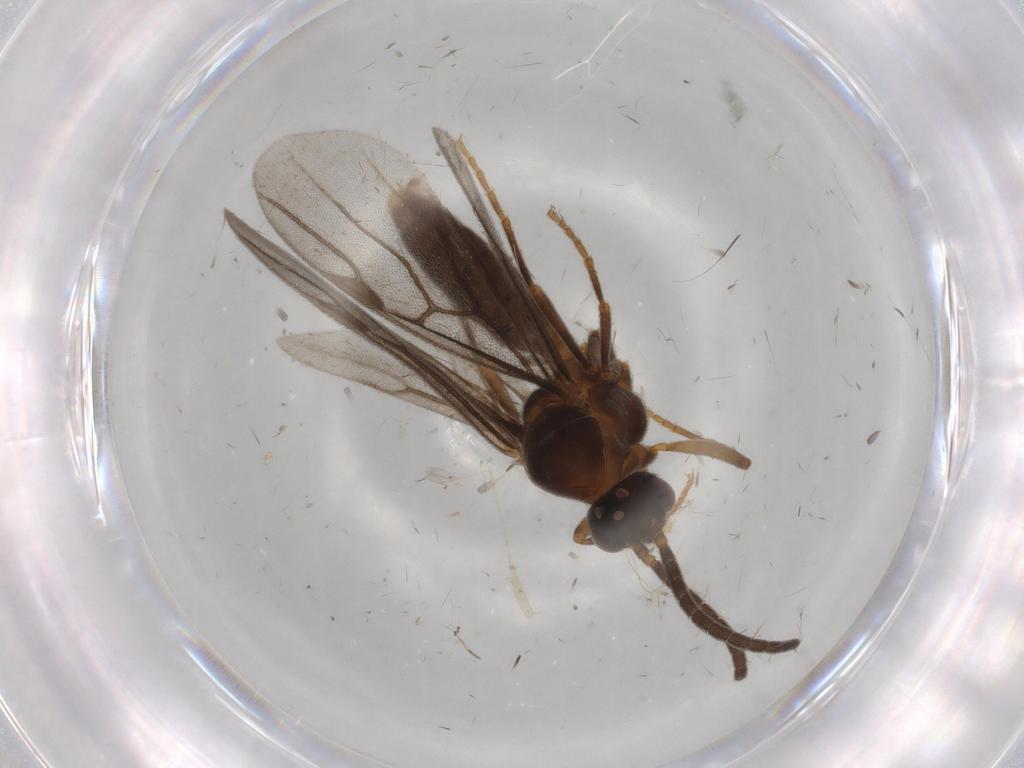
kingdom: Animalia
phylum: Arthropoda
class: Insecta
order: Hymenoptera
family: Formicidae
